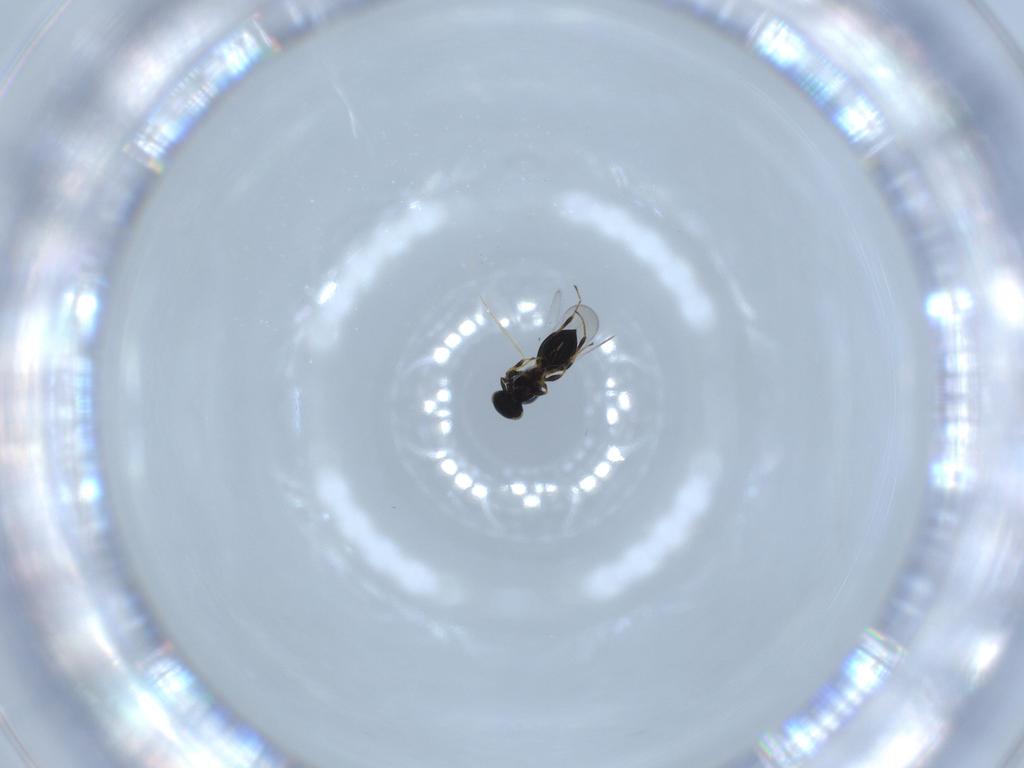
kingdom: Animalia
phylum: Arthropoda
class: Insecta
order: Hymenoptera
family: Platygastridae
